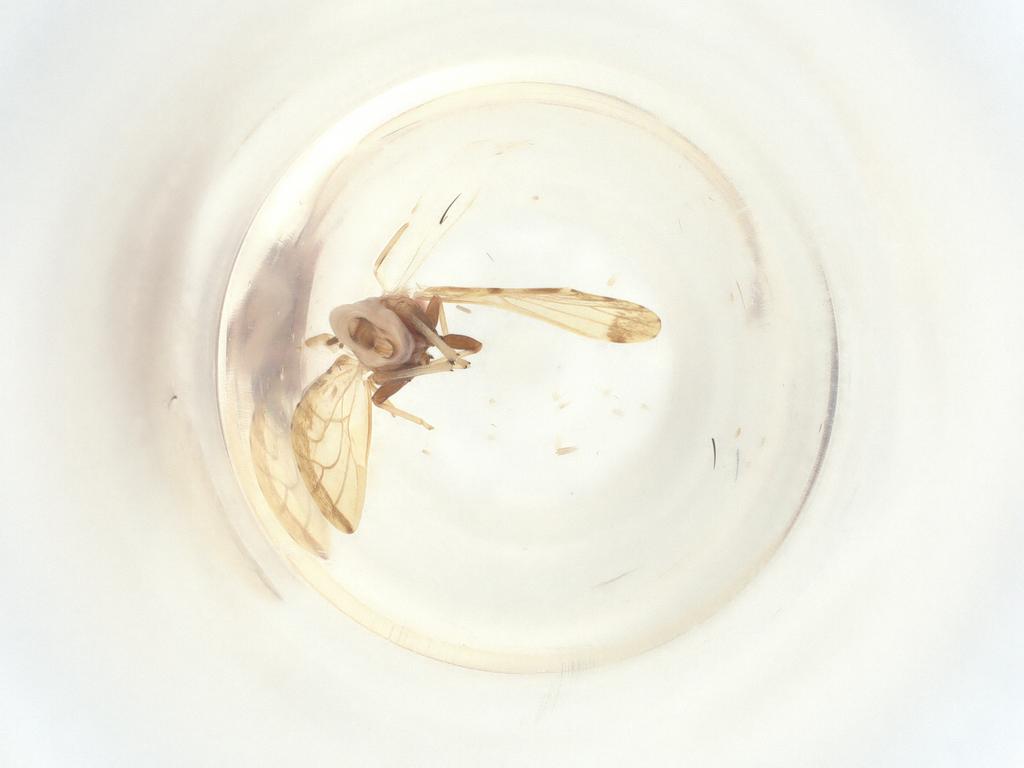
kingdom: Animalia
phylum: Arthropoda
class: Insecta
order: Hemiptera
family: Psyllidae
